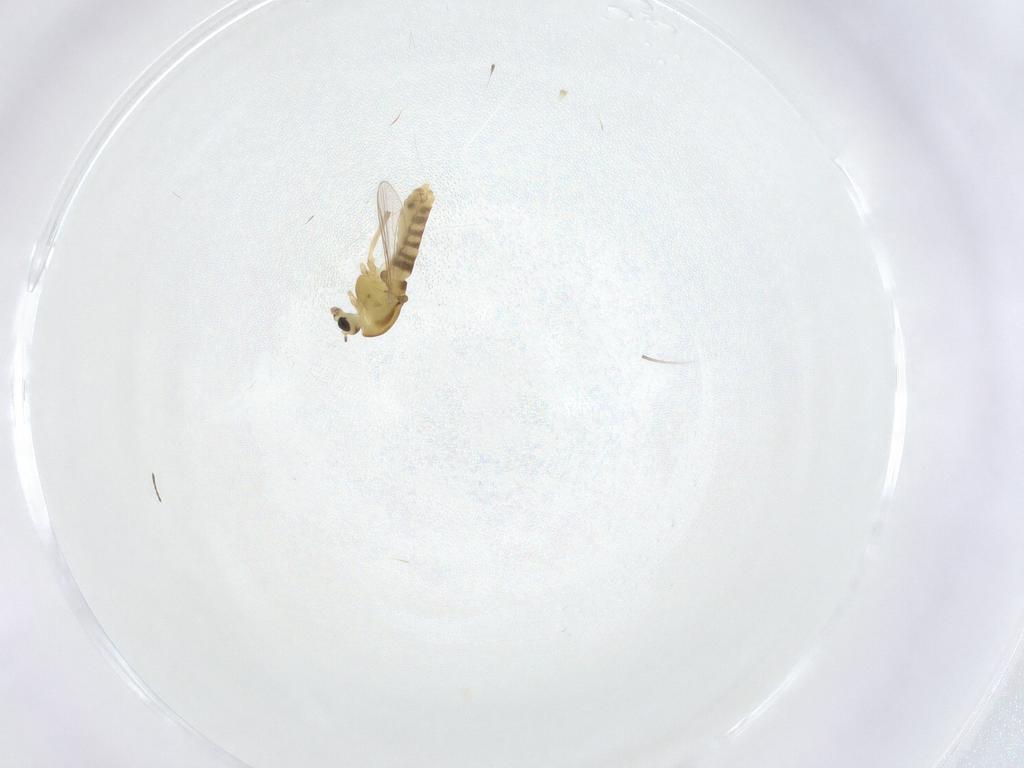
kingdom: Animalia
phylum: Arthropoda
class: Insecta
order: Diptera
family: Chironomidae
